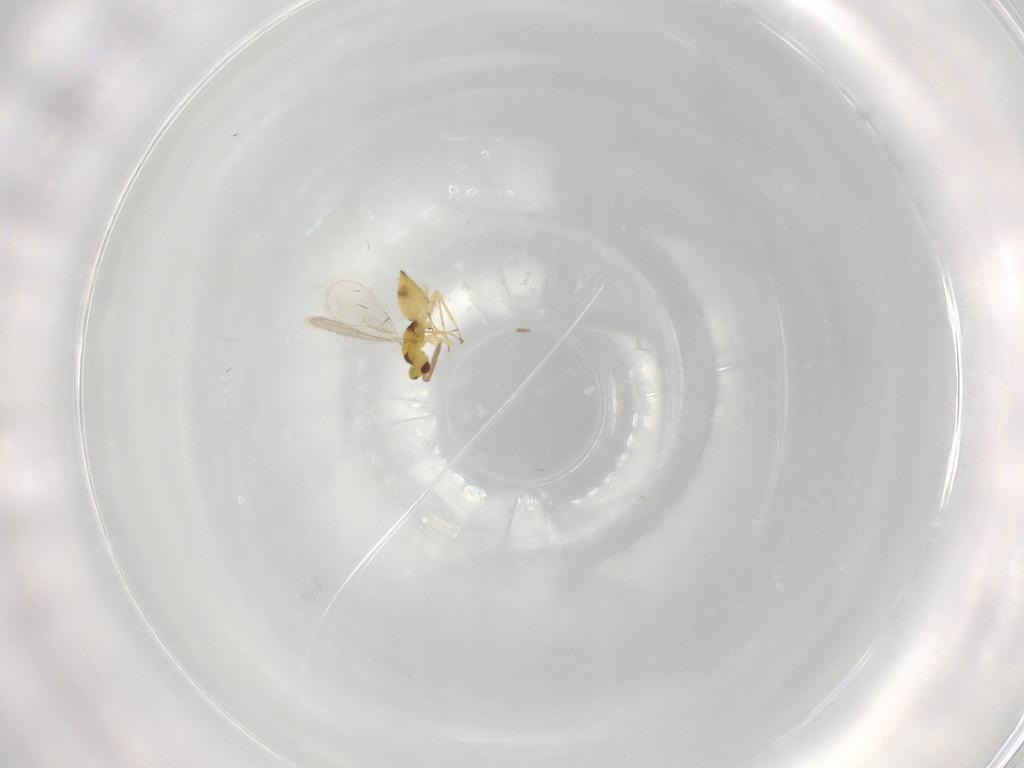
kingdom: Animalia
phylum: Arthropoda
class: Insecta
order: Hymenoptera
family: Eulophidae
